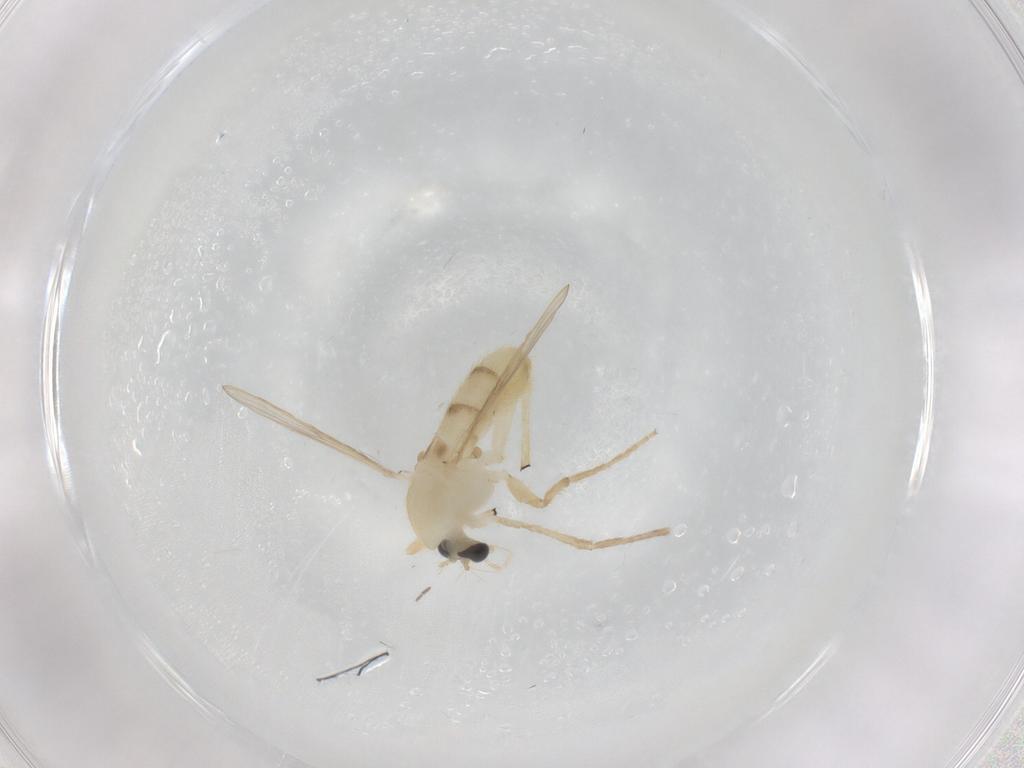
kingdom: Animalia
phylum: Arthropoda
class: Insecta
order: Diptera
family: Chironomidae
